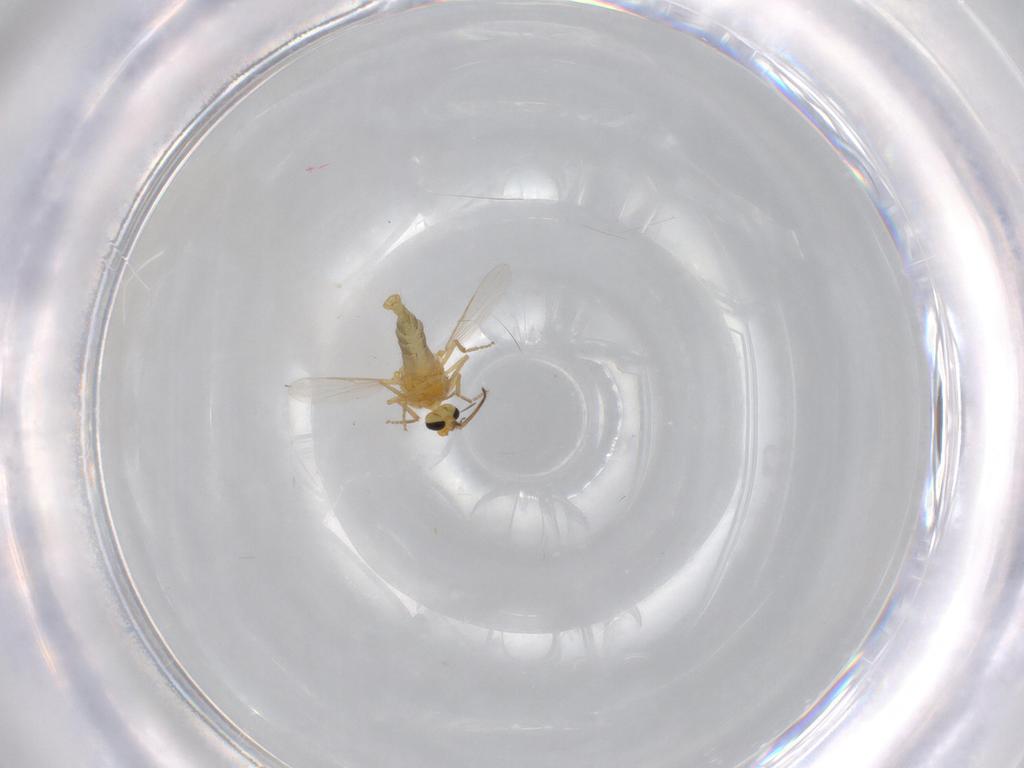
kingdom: Animalia
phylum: Arthropoda
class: Insecta
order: Diptera
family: Ceratopogonidae
